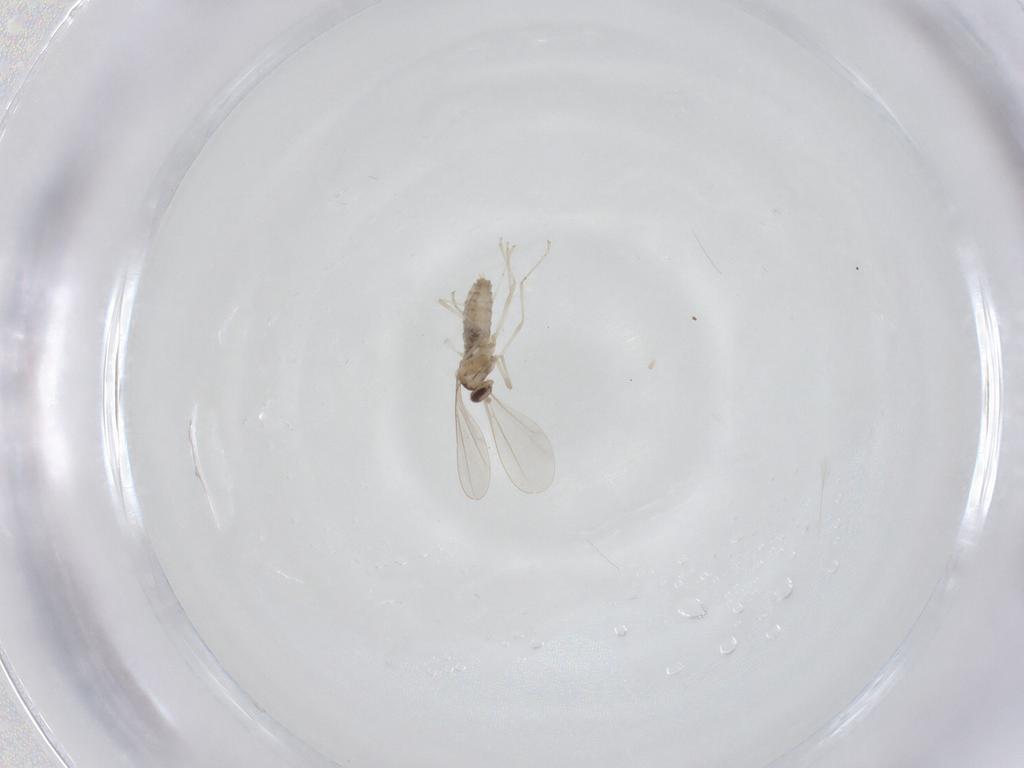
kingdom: Animalia
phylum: Arthropoda
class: Insecta
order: Diptera
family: Cecidomyiidae
